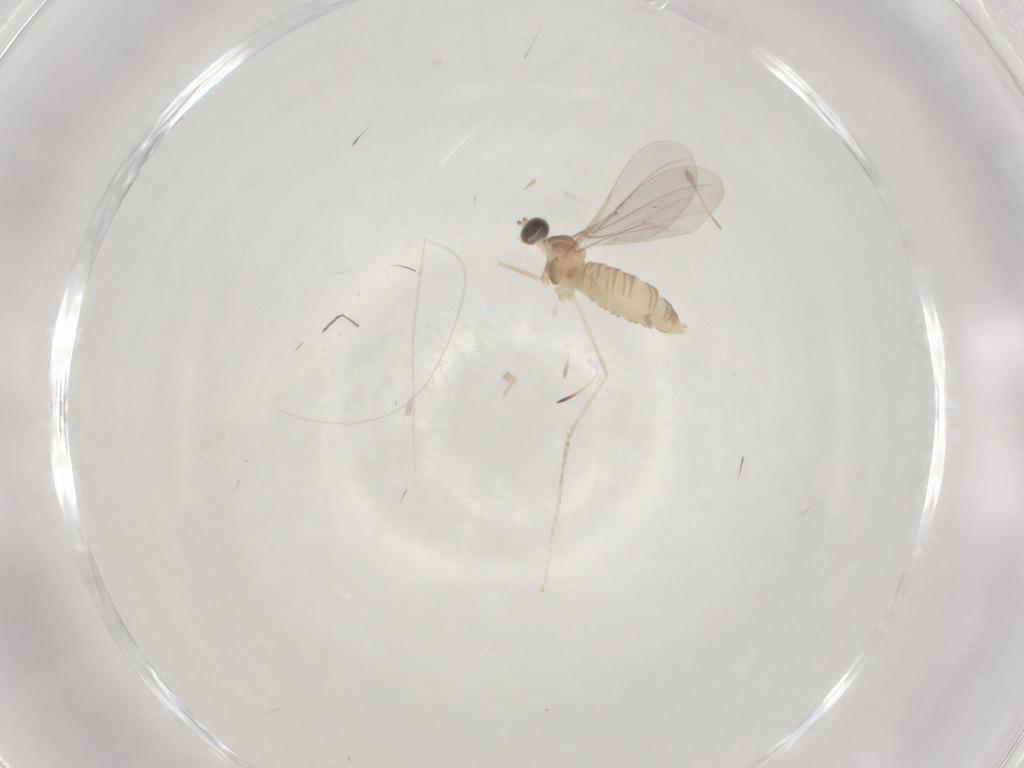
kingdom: Animalia
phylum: Arthropoda
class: Insecta
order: Diptera
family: Cecidomyiidae
